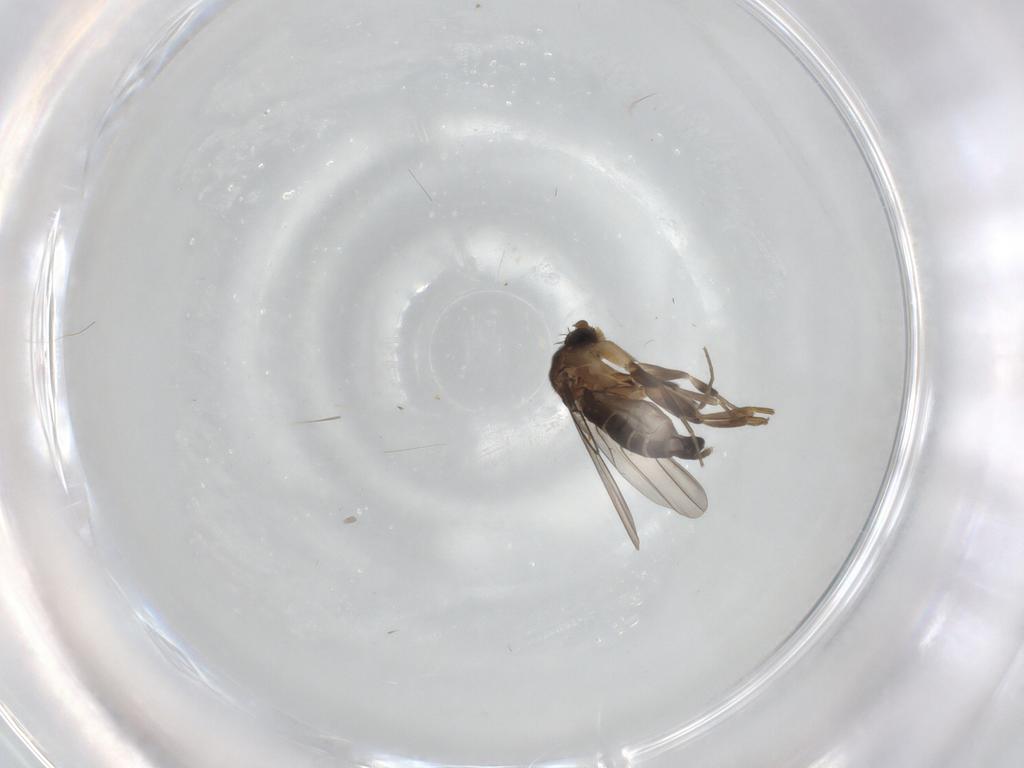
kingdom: Animalia
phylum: Arthropoda
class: Insecta
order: Diptera
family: Phoridae
